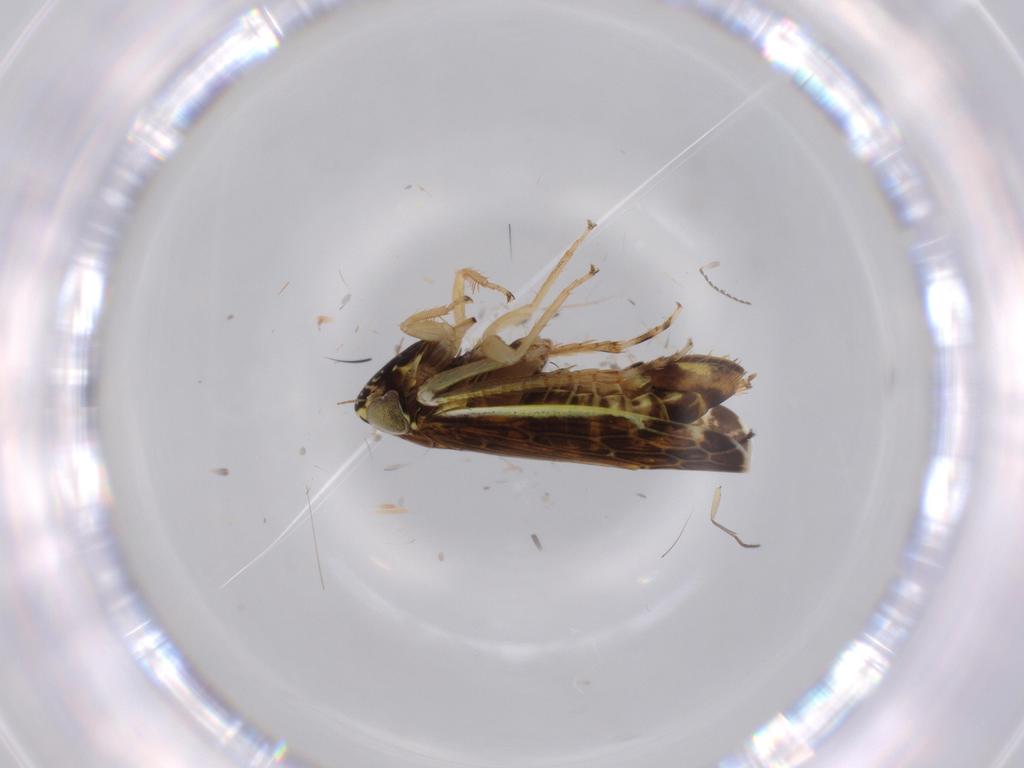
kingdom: Animalia
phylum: Arthropoda
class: Insecta
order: Hemiptera
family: Cicadellidae
